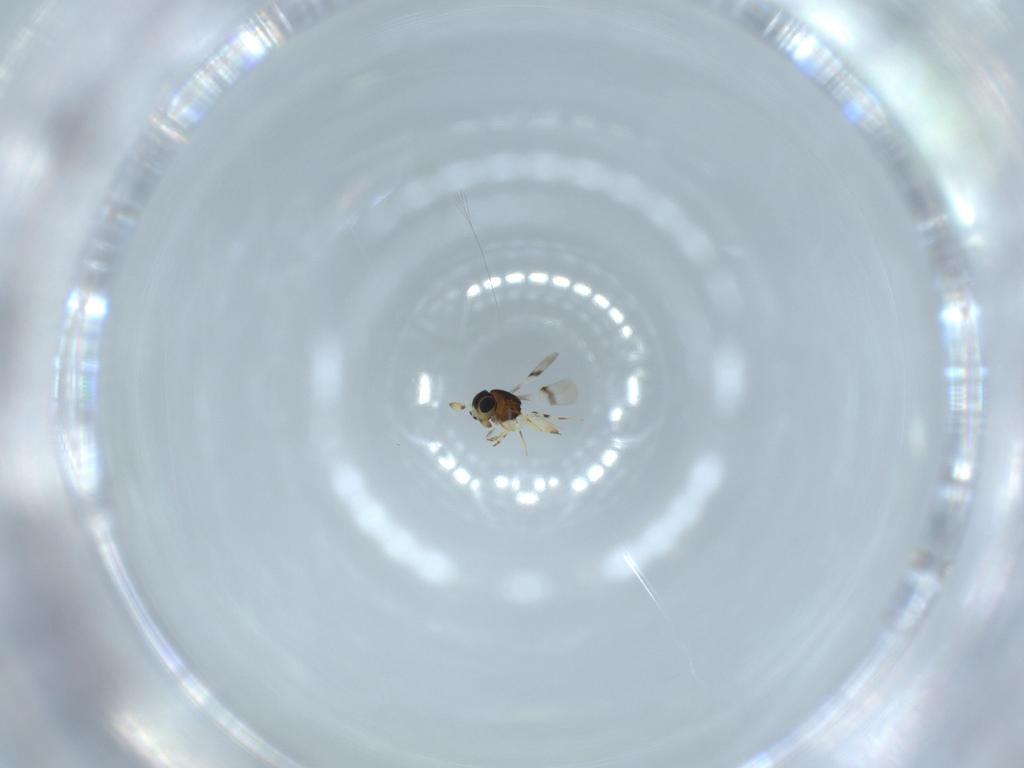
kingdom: Animalia
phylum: Arthropoda
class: Insecta
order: Hymenoptera
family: Scelionidae
